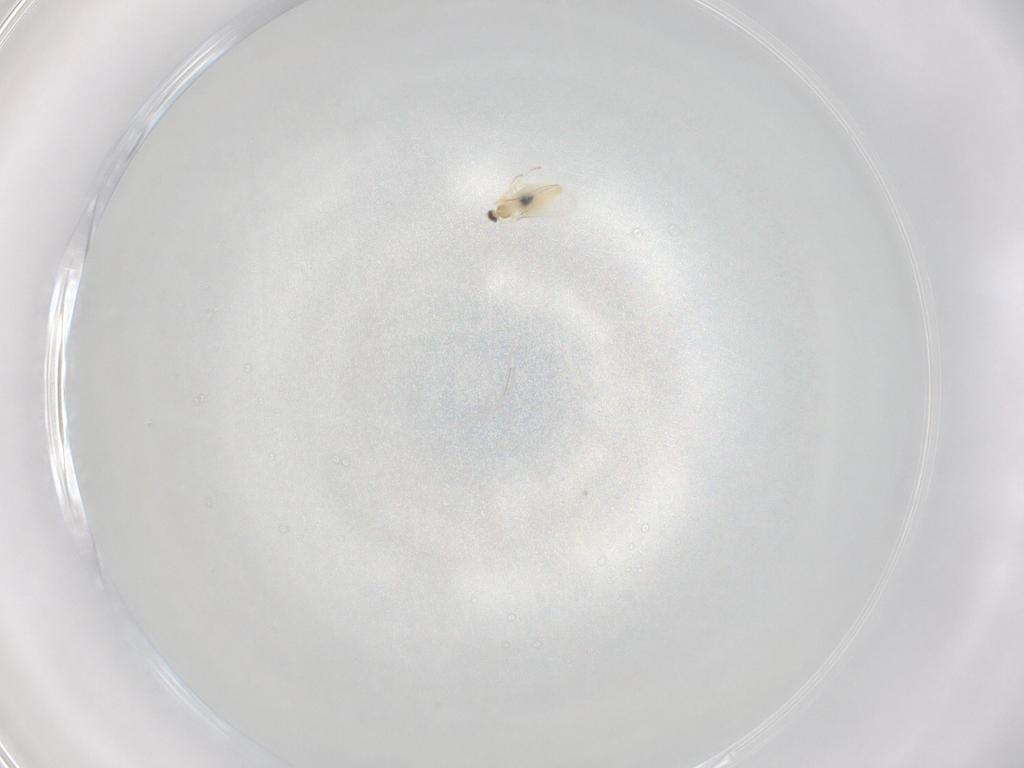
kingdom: Animalia
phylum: Arthropoda
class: Insecta
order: Diptera
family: Cecidomyiidae
